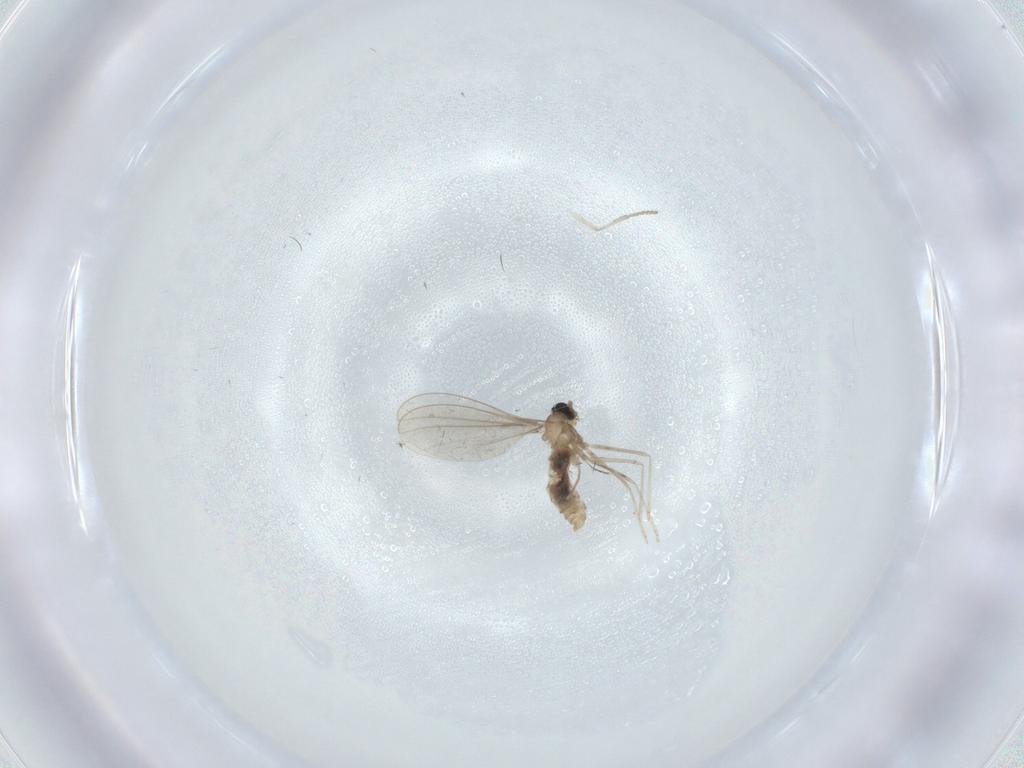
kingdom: Animalia
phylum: Arthropoda
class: Insecta
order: Diptera
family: Cecidomyiidae
